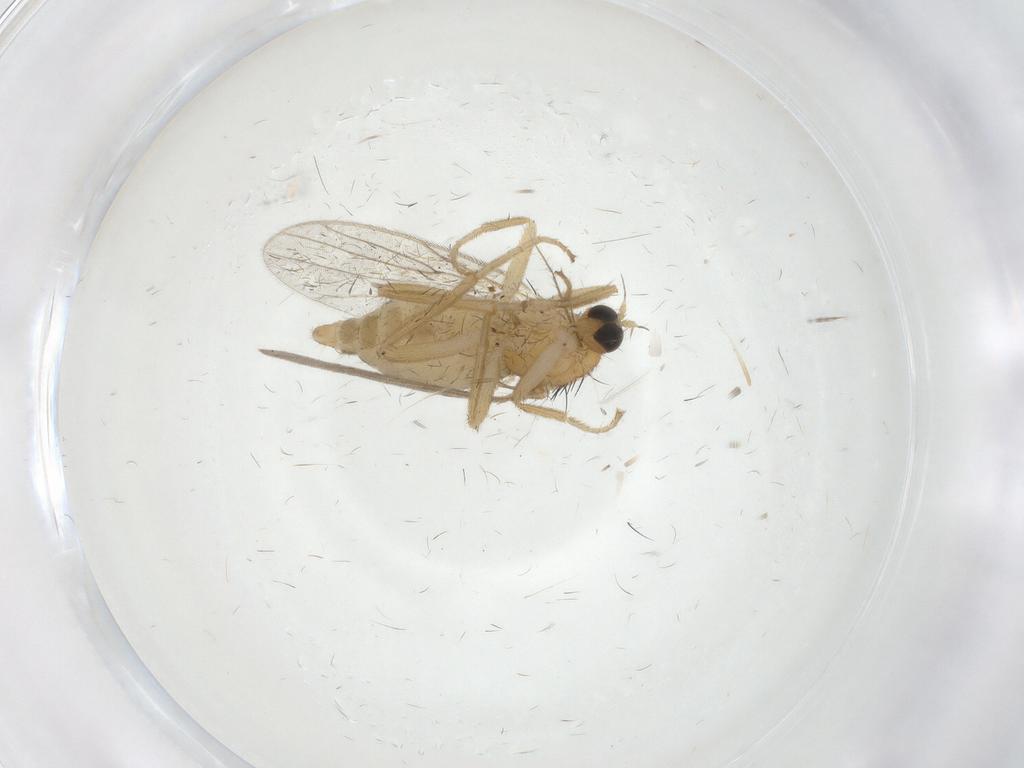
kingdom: Animalia
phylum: Arthropoda
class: Insecta
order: Diptera
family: Hybotidae
